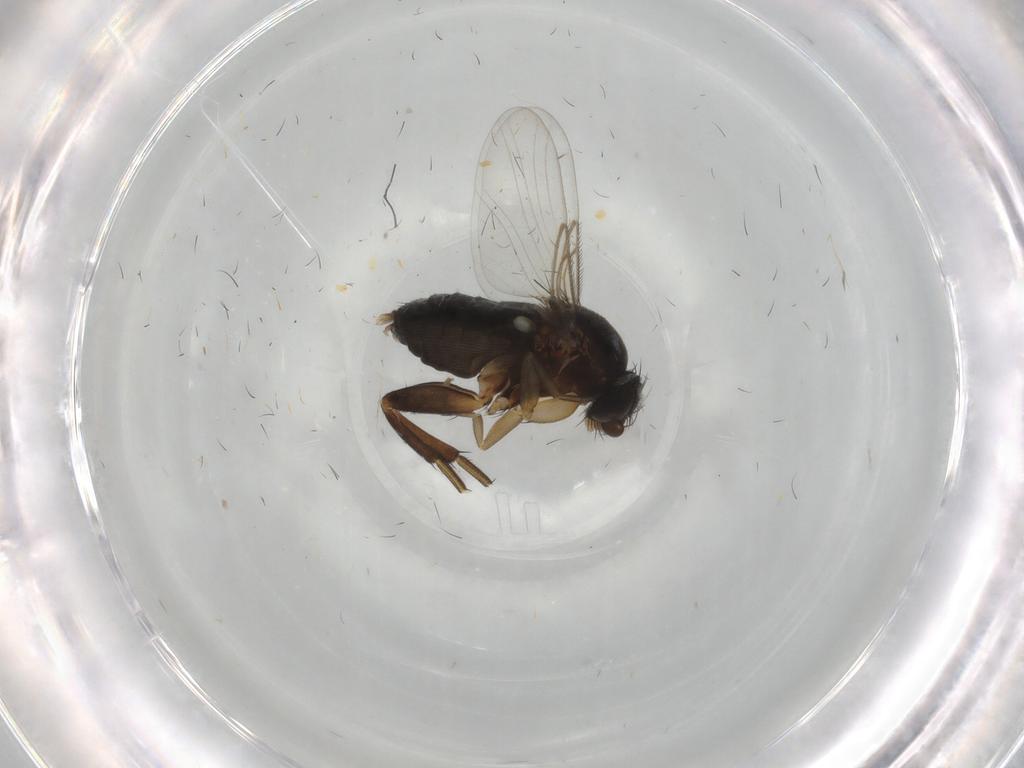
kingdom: Animalia
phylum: Arthropoda
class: Insecta
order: Diptera
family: Phoridae
